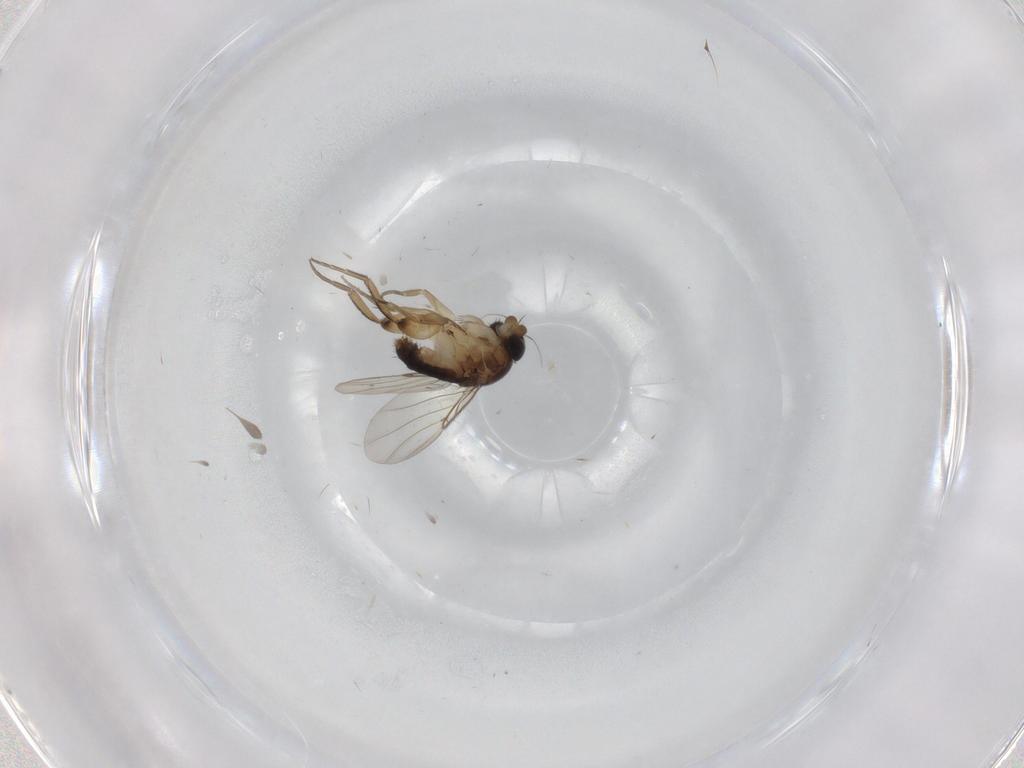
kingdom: Animalia
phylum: Arthropoda
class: Insecta
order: Diptera
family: Phoridae
